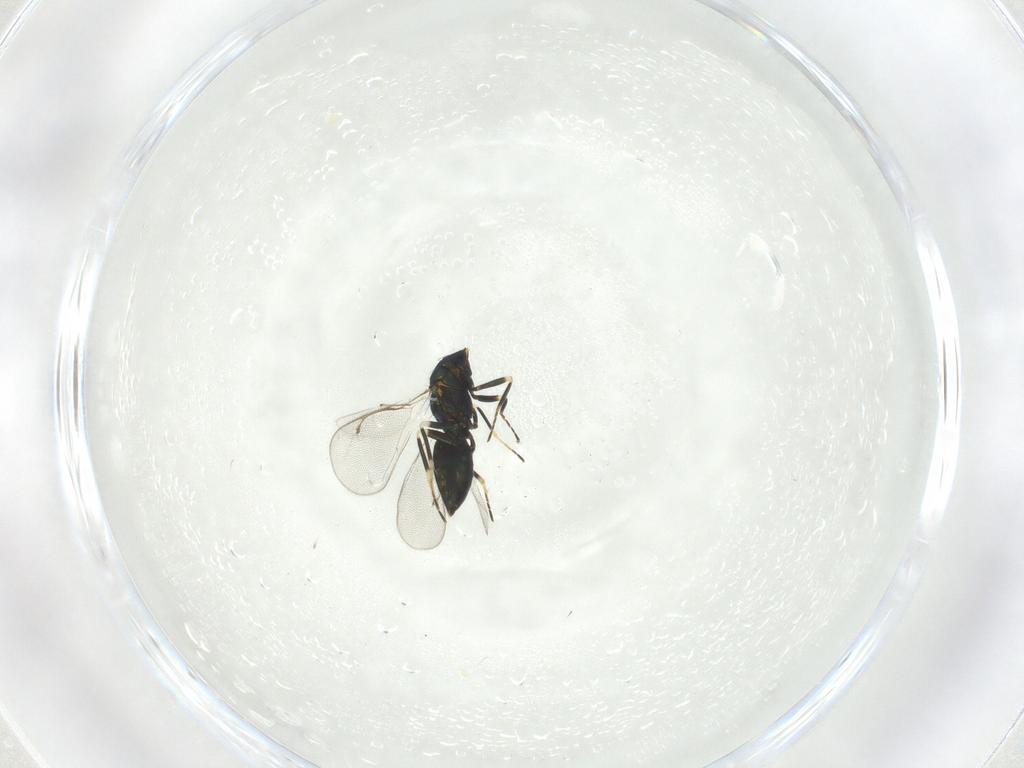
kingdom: Animalia
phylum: Arthropoda
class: Insecta
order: Hymenoptera
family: Eulophidae
